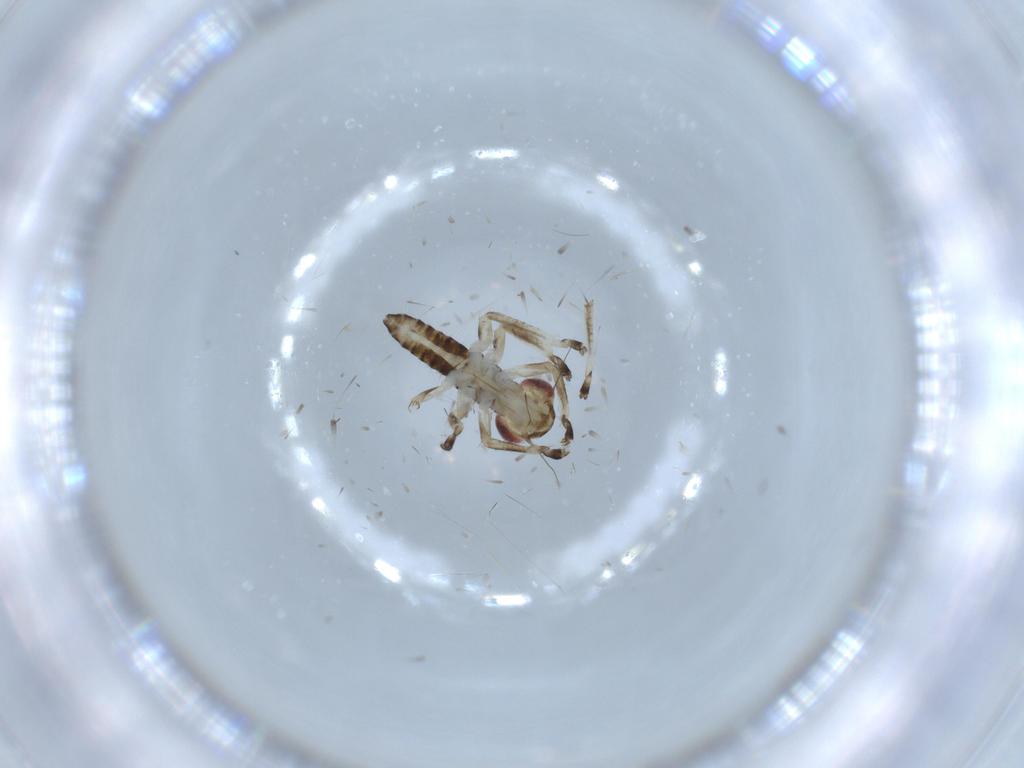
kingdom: Animalia
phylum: Arthropoda
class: Insecta
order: Hemiptera
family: Cicadellidae
